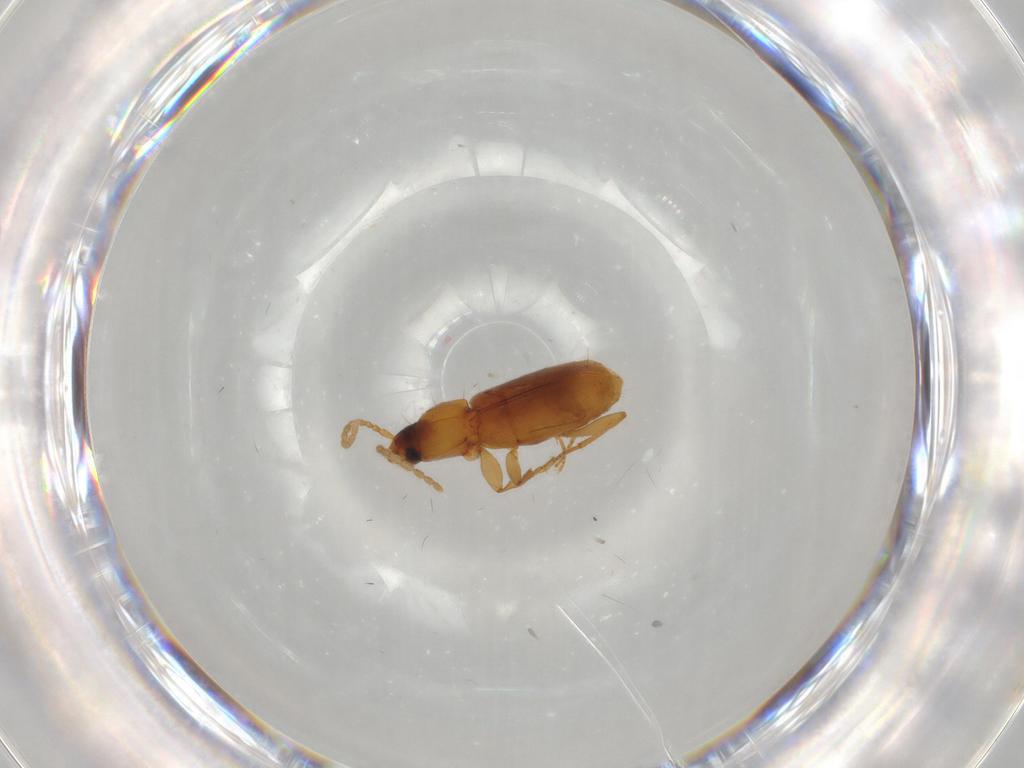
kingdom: Animalia
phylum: Arthropoda
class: Insecta
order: Coleoptera
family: Carabidae
